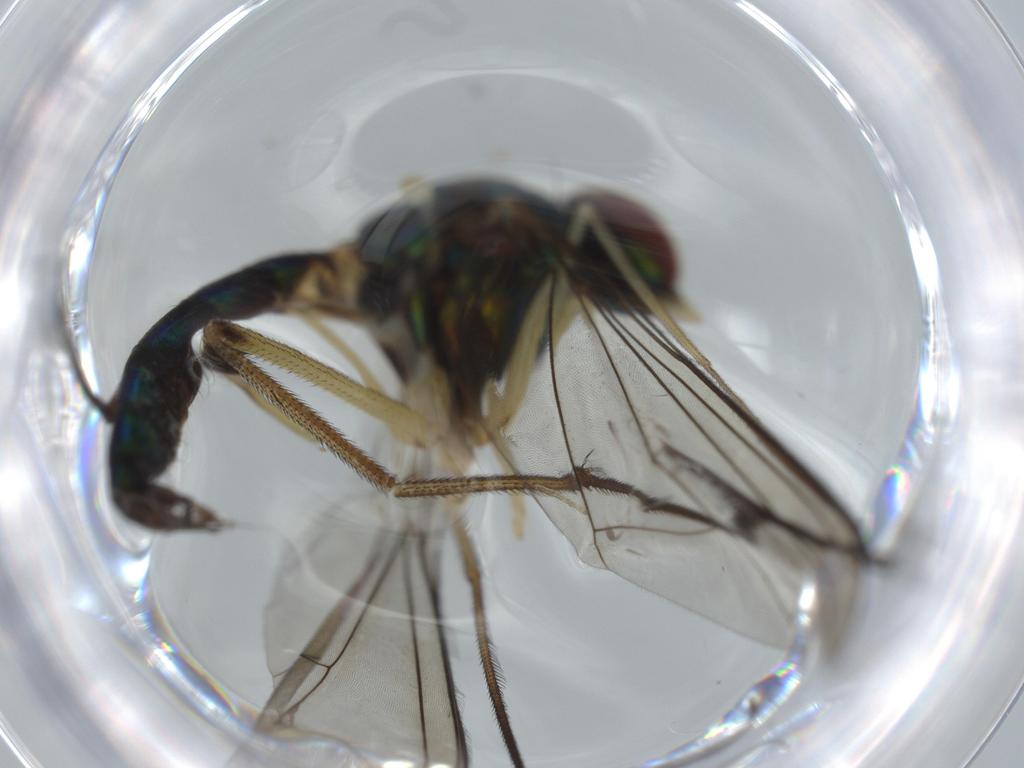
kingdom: Animalia
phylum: Arthropoda
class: Insecta
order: Diptera
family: Dolichopodidae
